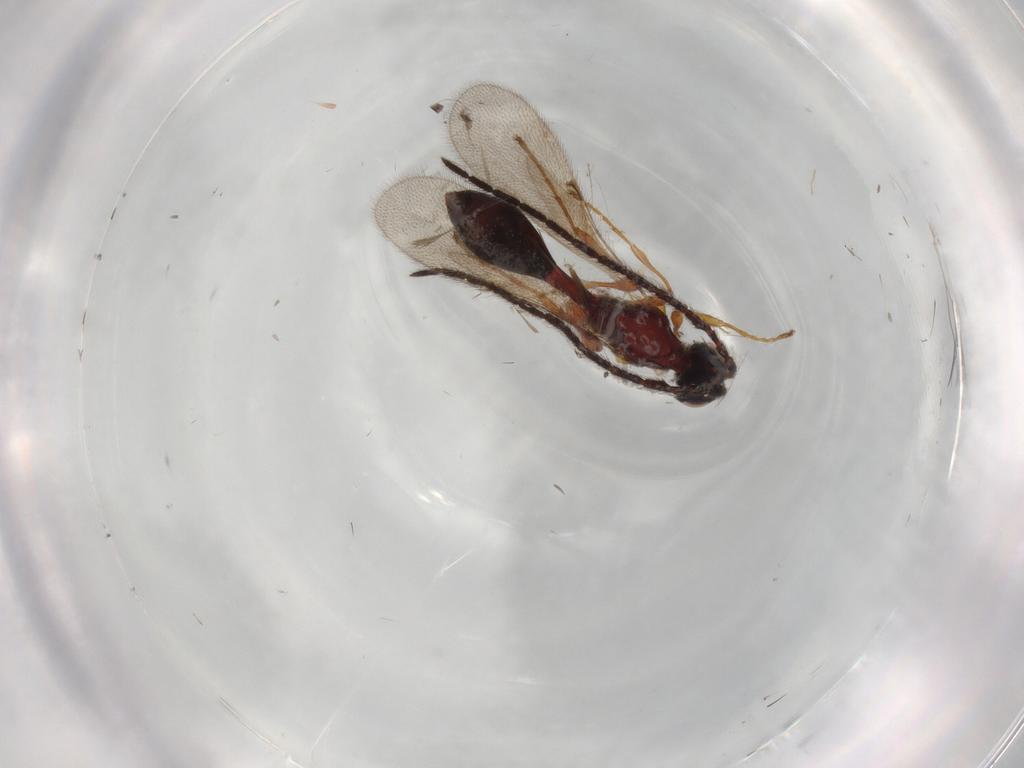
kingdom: Animalia
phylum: Arthropoda
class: Insecta
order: Hymenoptera
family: Diapriidae
